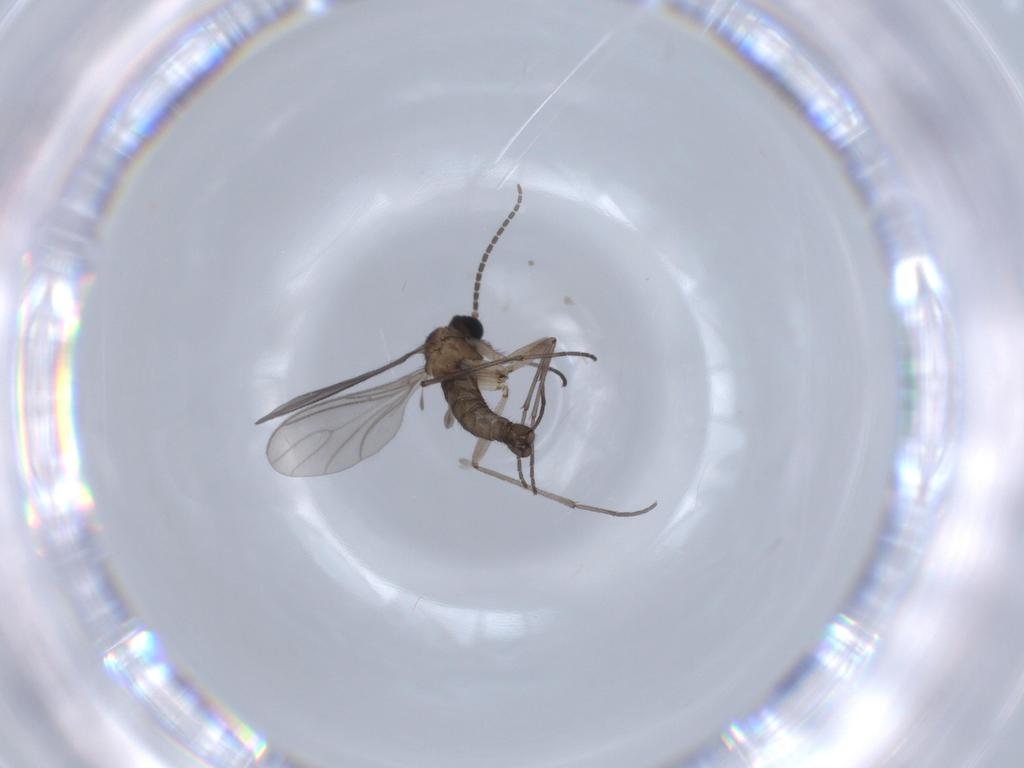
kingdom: Animalia
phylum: Arthropoda
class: Insecta
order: Diptera
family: Sciaridae
